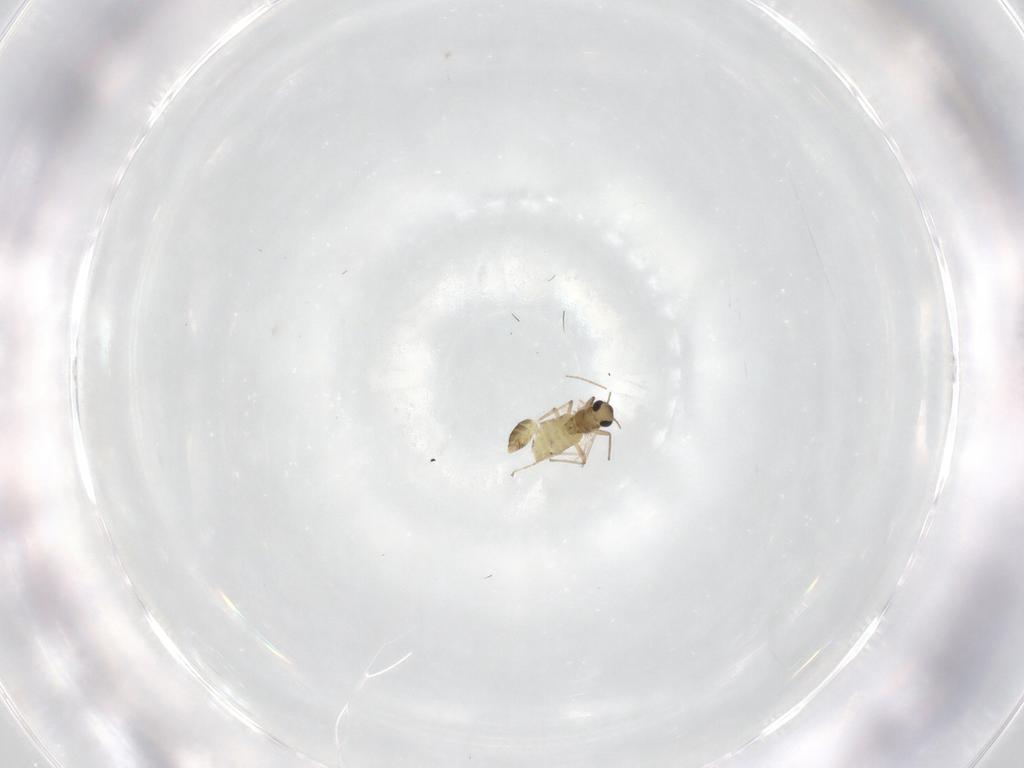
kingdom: Animalia
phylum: Arthropoda
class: Insecta
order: Diptera
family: Chironomidae
